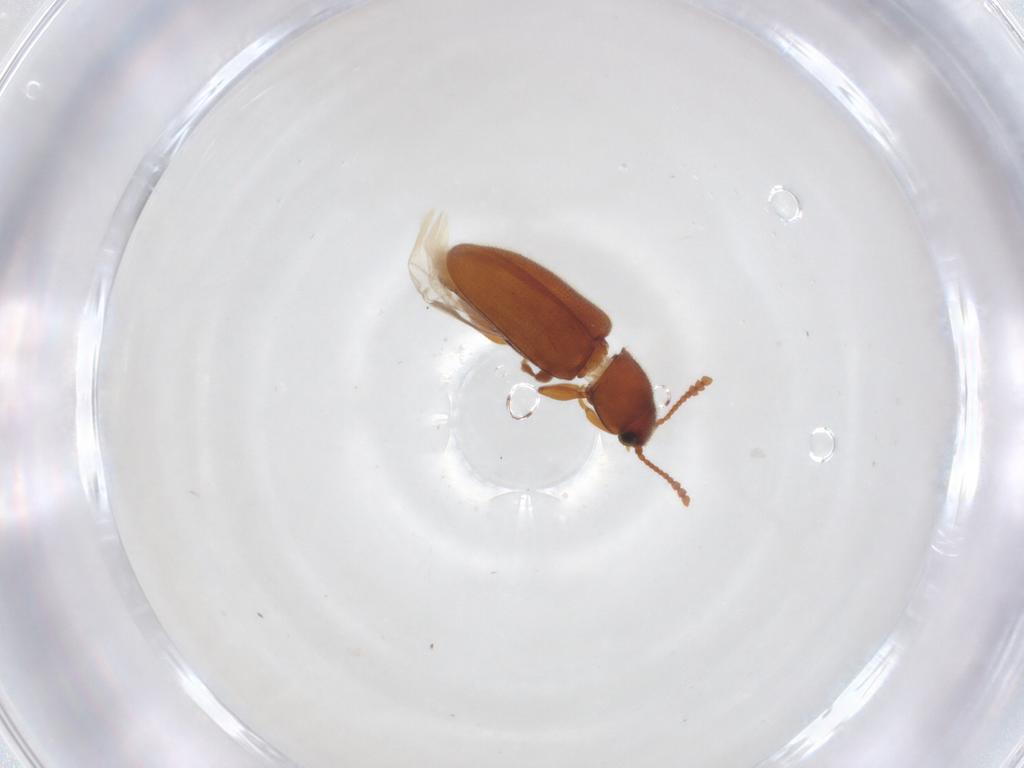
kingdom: Animalia
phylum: Arthropoda
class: Insecta
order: Coleoptera
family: Erotylidae
